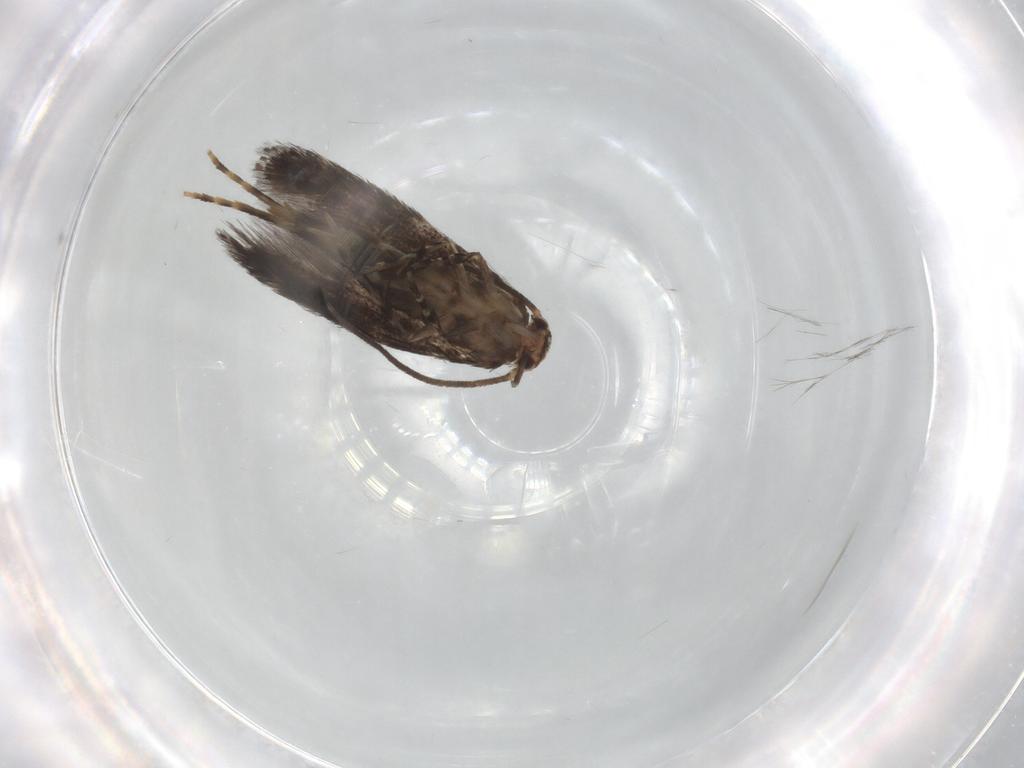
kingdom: Animalia
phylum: Arthropoda
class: Insecta
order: Lepidoptera
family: Elachistidae
